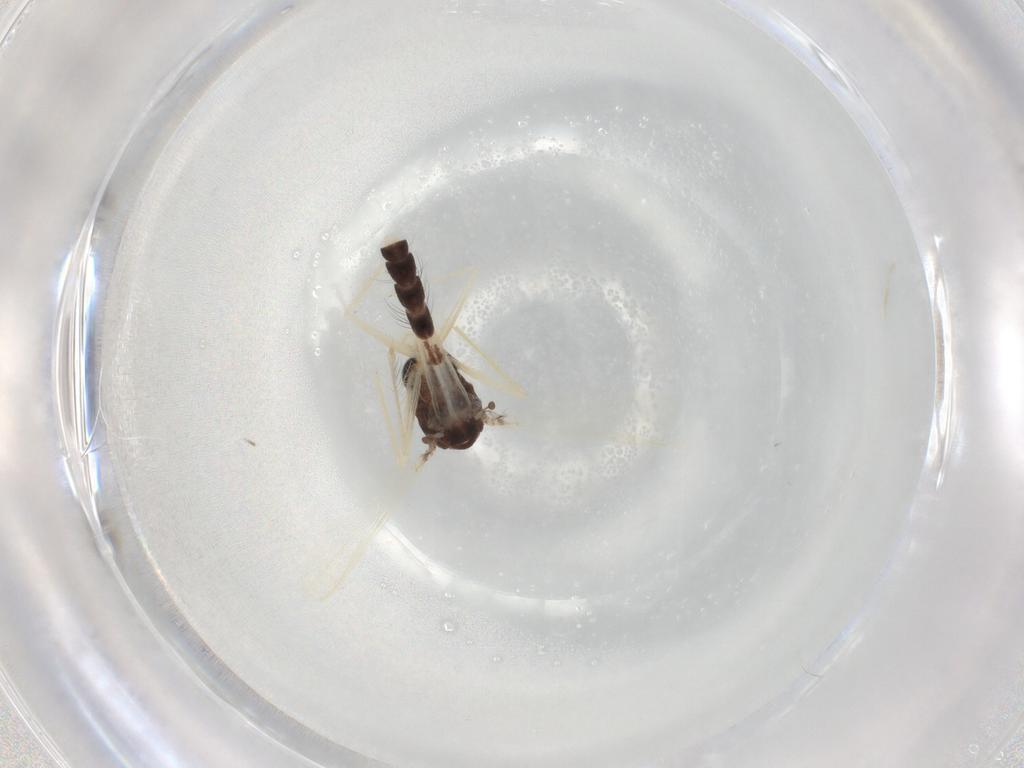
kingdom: Animalia
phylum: Arthropoda
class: Insecta
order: Diptera
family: Chironomidae
